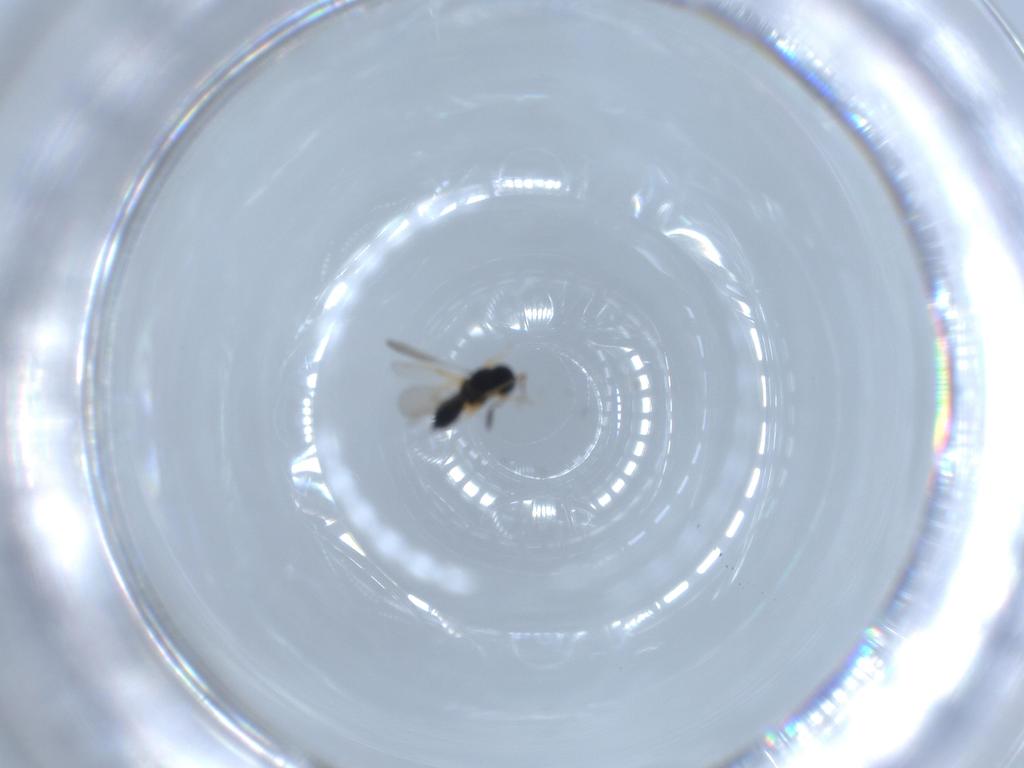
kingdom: Animalia
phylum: Arthropoda
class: Insecta
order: Hymenoptera
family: Scelionidae
